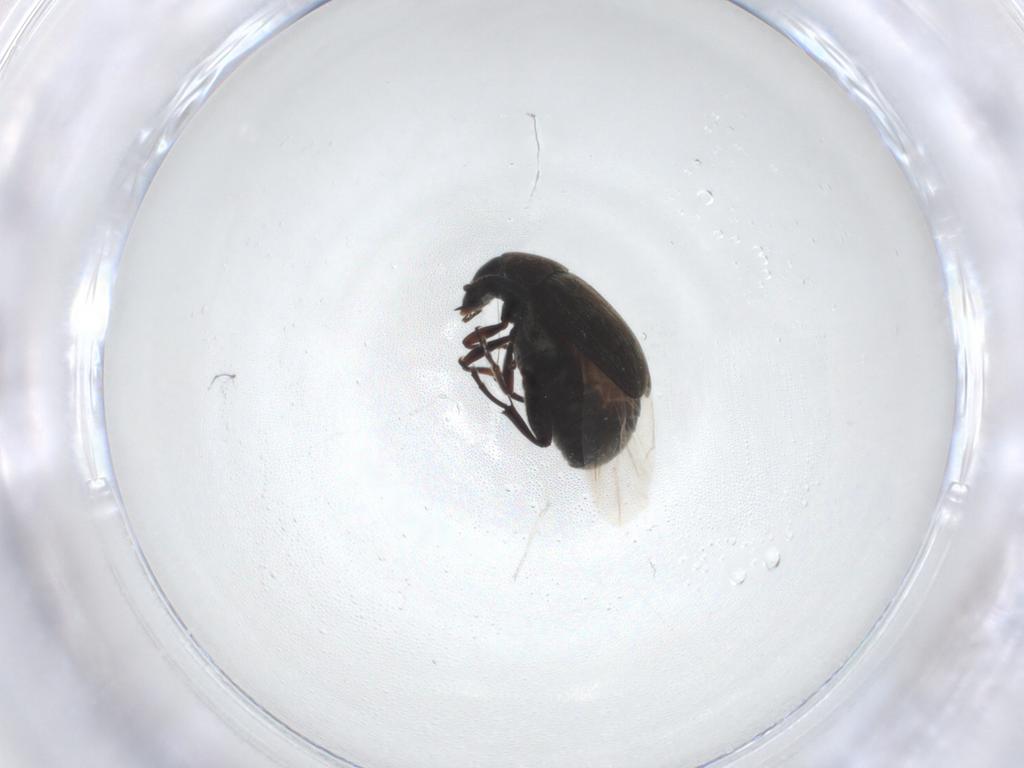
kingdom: Animalia
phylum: Arthropoda
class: Insecta
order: Coleoptera
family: Chrysomelidae
